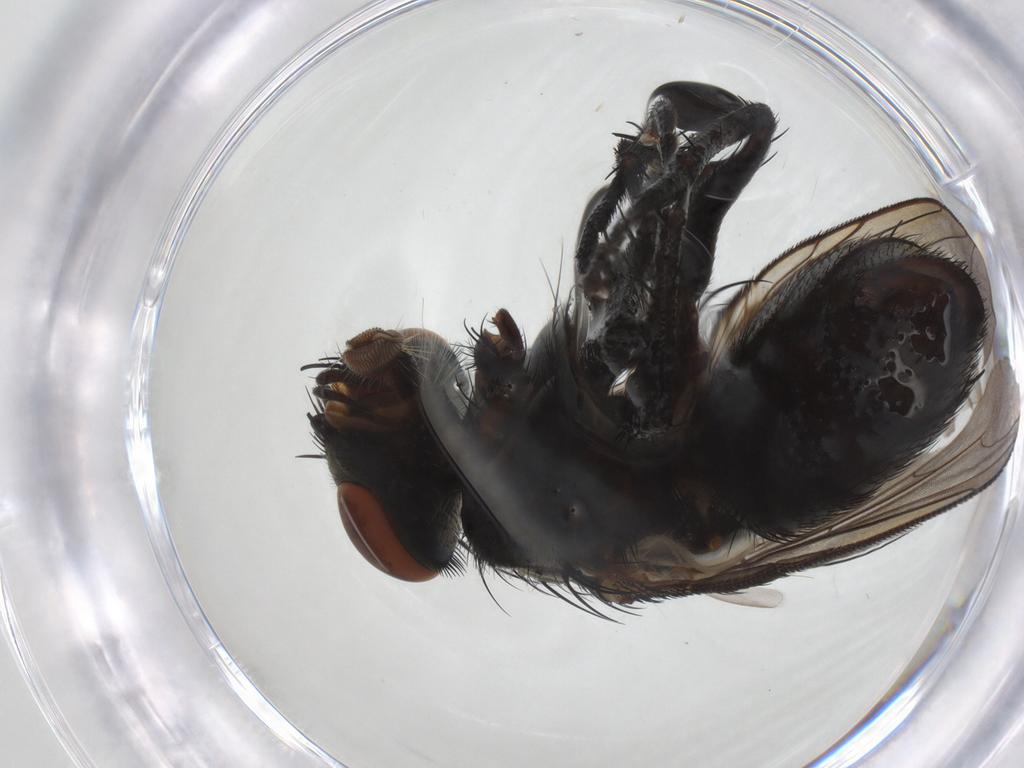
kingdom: Animalia
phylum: Arthropoda
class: Insecta
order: Diptera
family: Sarcophagidae
